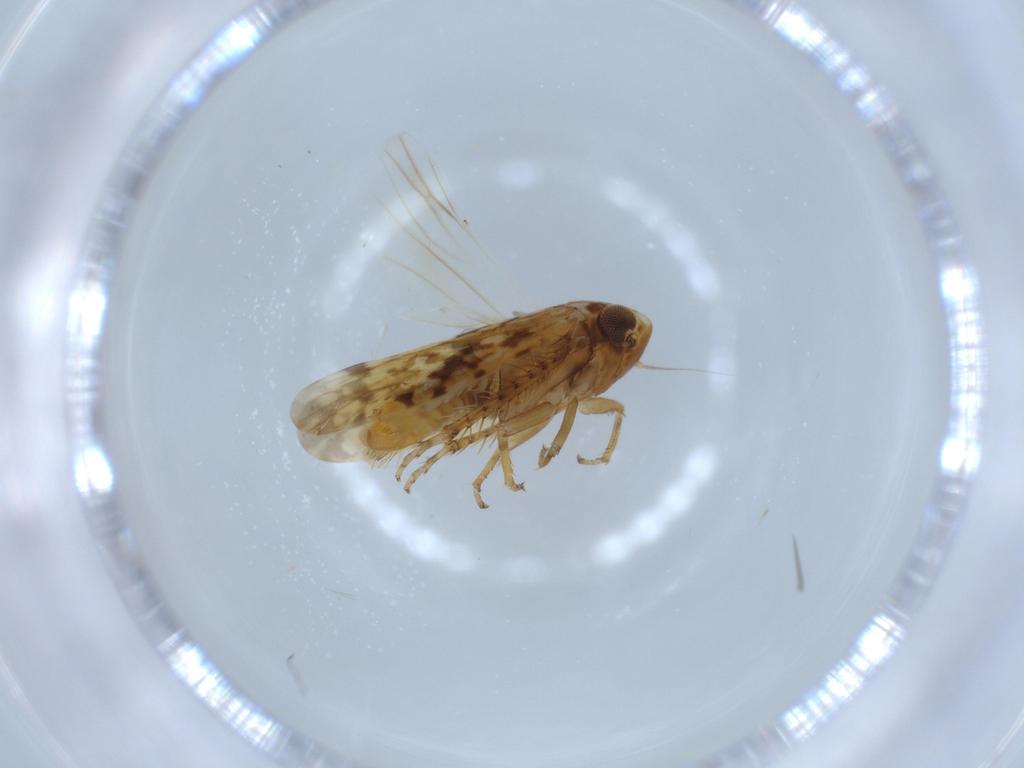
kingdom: Animalia
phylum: Arthropoda
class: Insecta
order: Hemiptera
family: Cicadellidae
